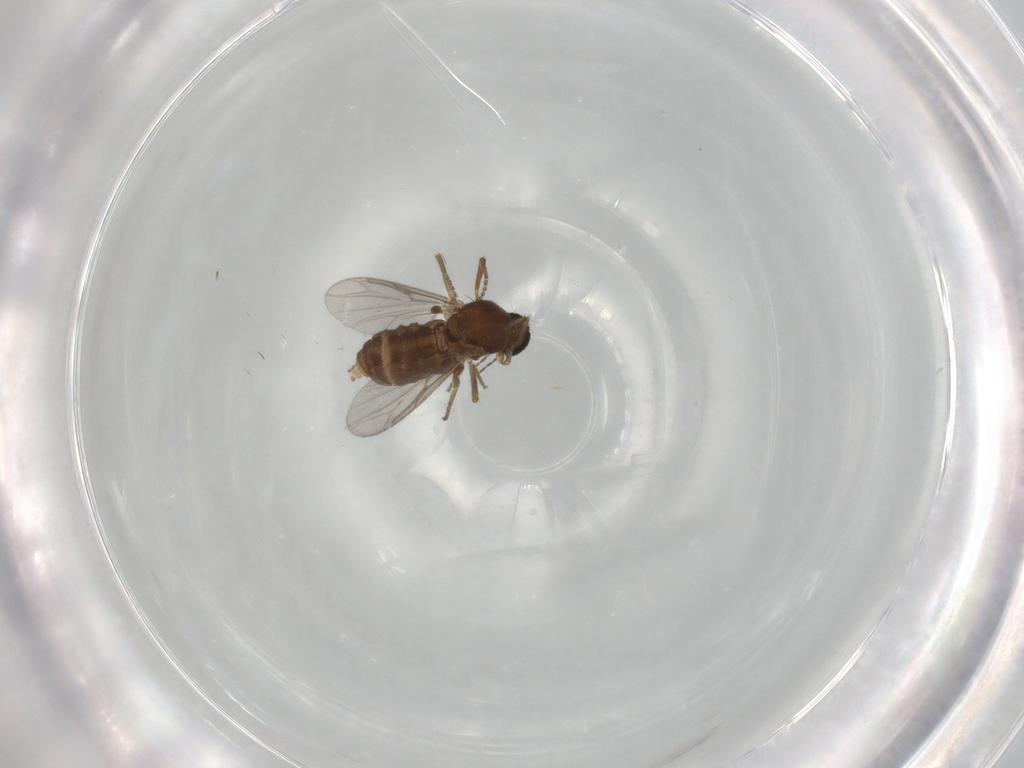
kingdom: Animalia
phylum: Arthropoda
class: Insecta
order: Diptera
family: Ceratopogonidae
